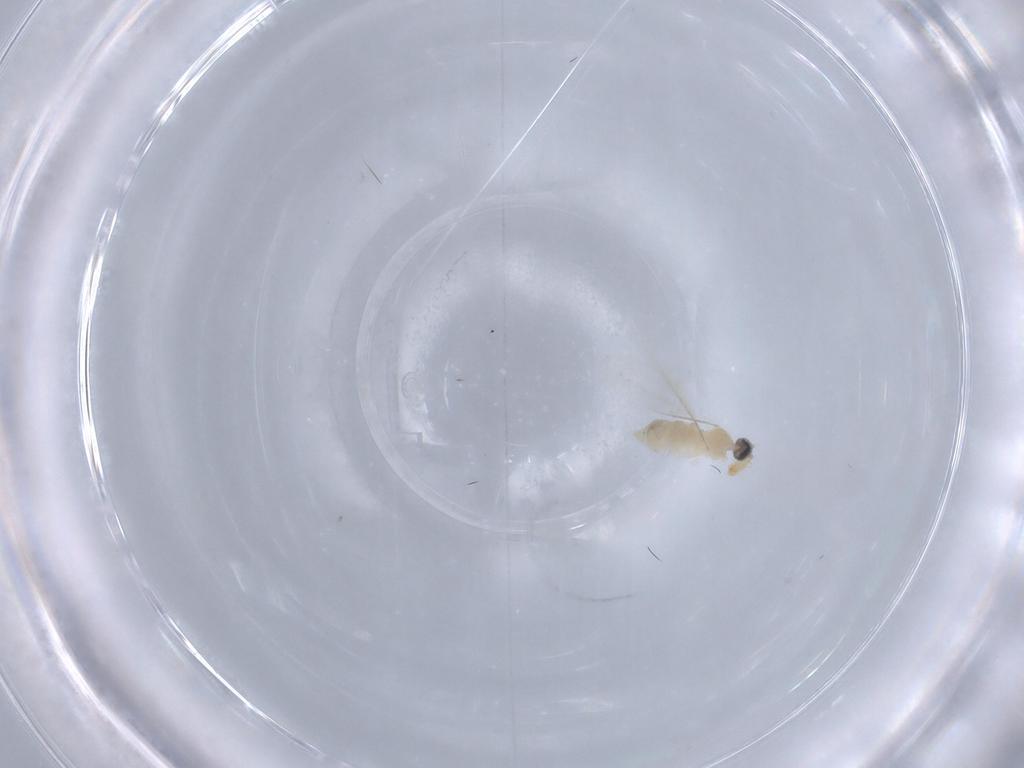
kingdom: Animalia
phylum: Arthropoda
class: Insecta
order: Diptera
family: Cecidomyiidae
